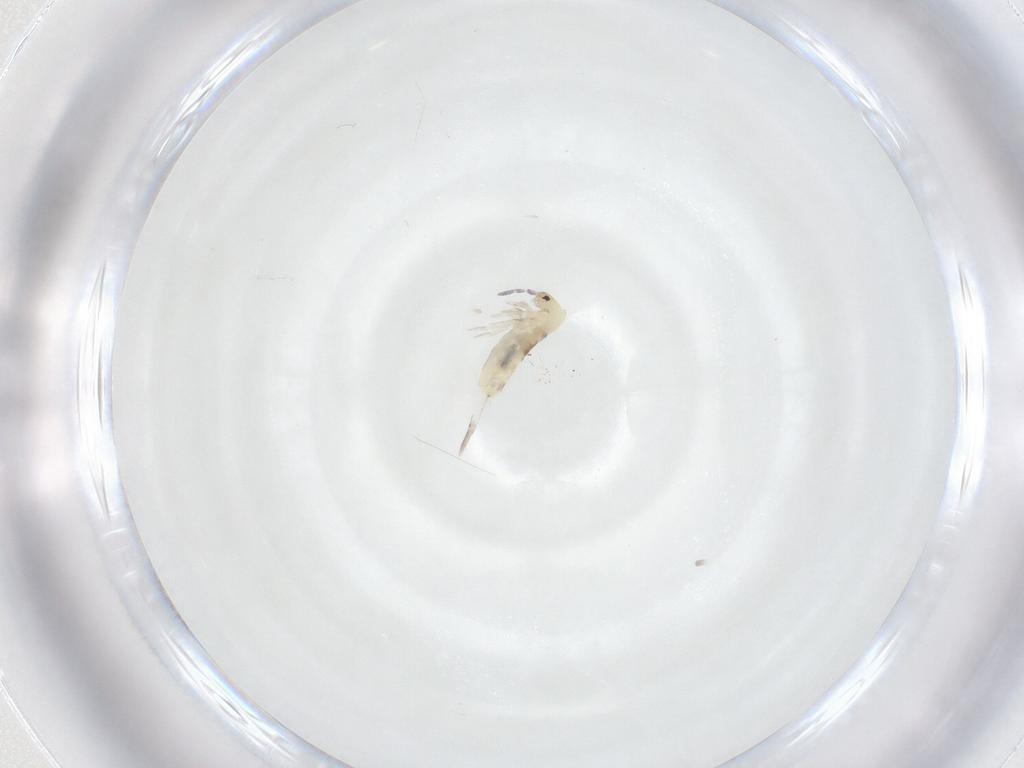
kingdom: Animalia
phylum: Arthropoda
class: Collembola
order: Entomobryomorpha
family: Entomobryidae
